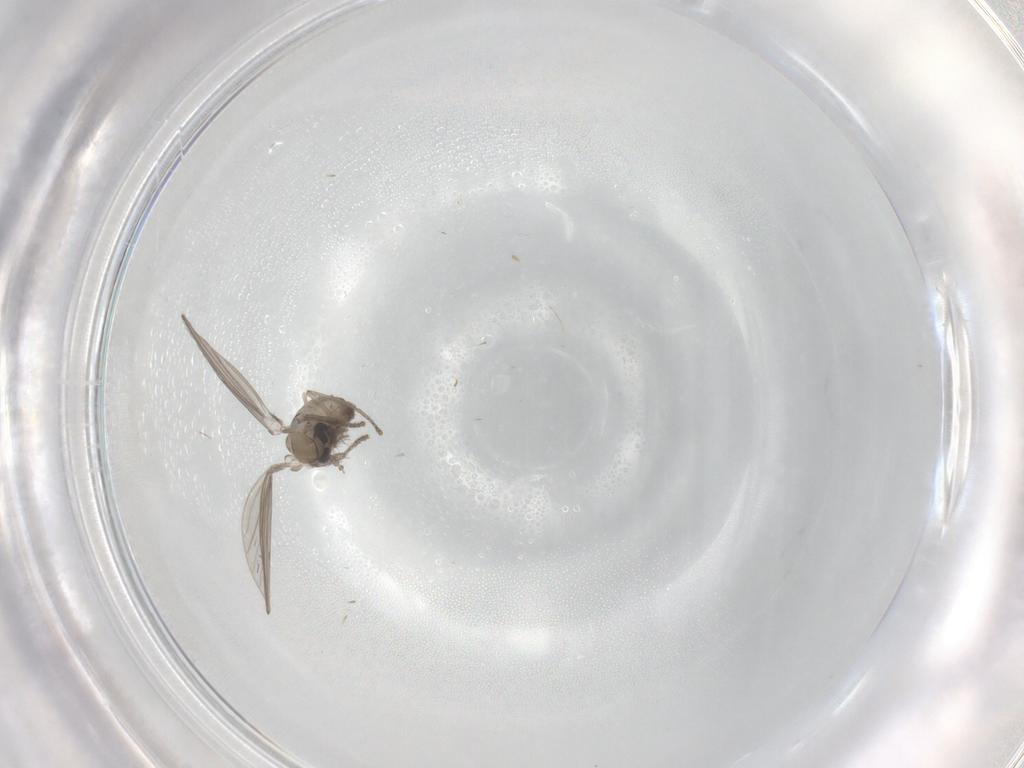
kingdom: Animalia
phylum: Arthropoda
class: Insecta
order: Diptera
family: Psychodidae
